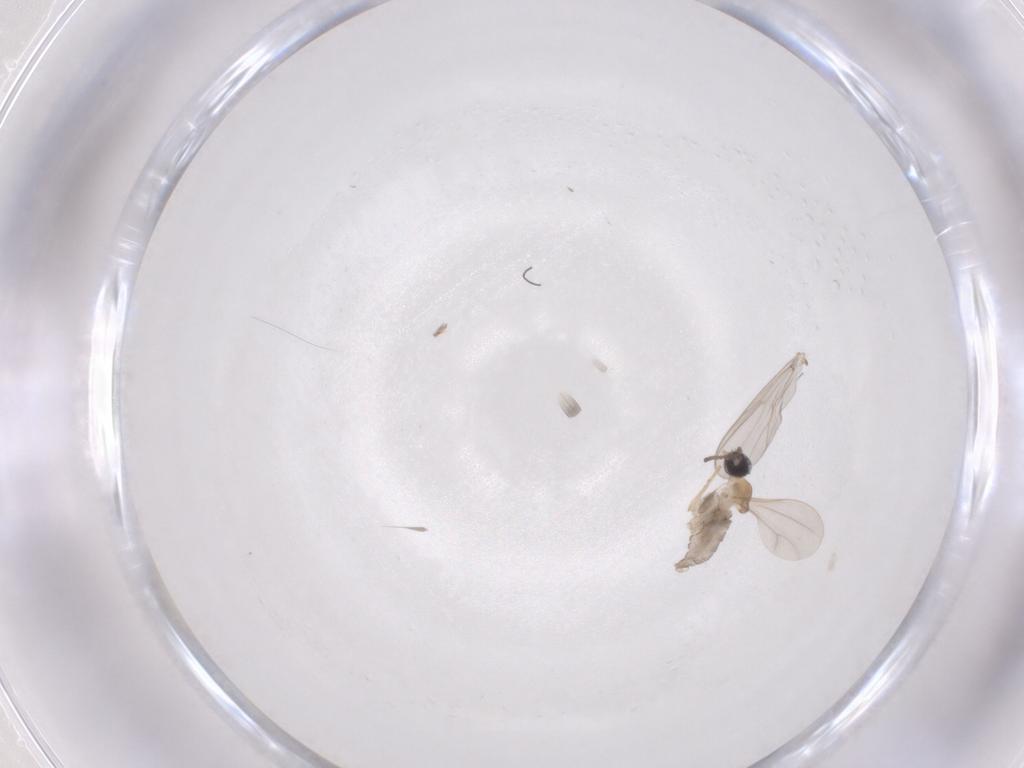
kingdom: Animalia
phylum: Arthropoda
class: Insecta
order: Diptera
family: Cecidomyiidae
